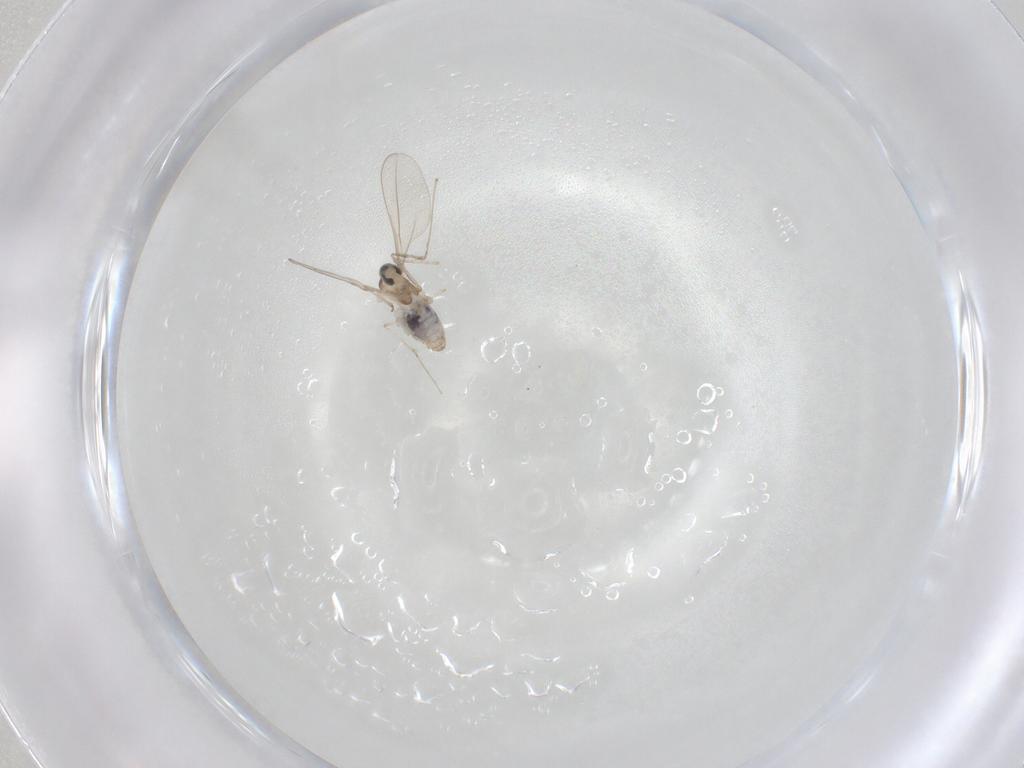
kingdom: Animalia
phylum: Arthropoda
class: Insecta
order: Diptera
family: Cecidomyiidae
